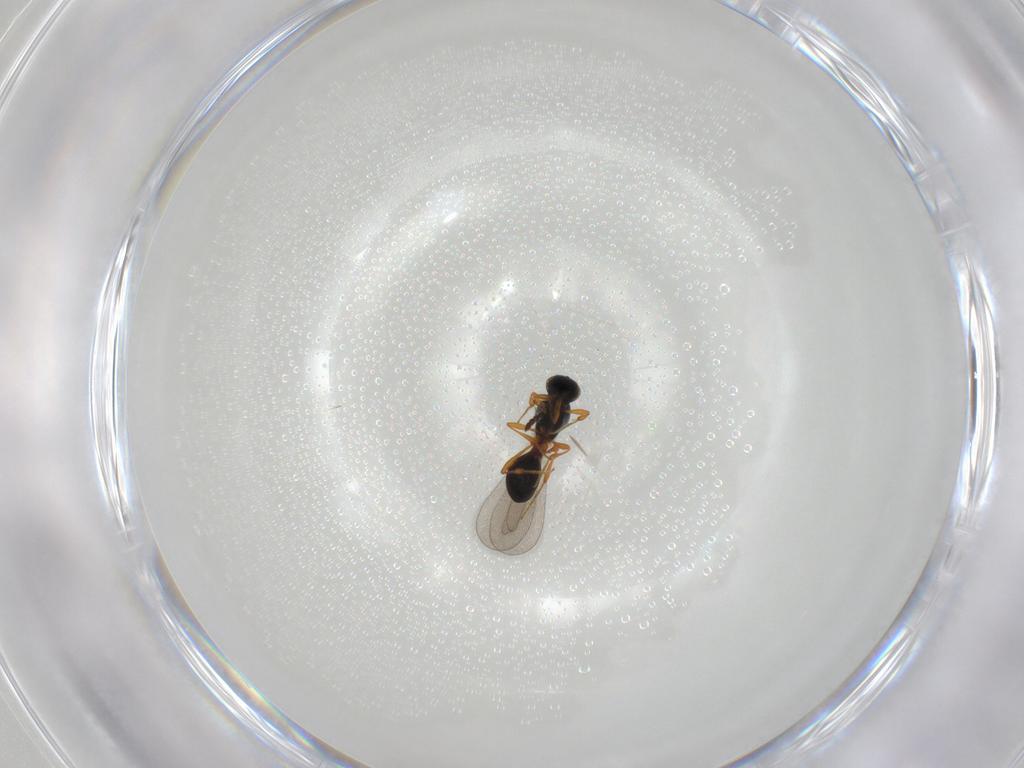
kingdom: Animalia
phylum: Arthropoda
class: Insecta
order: Hymenoptera
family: Platygastridae
